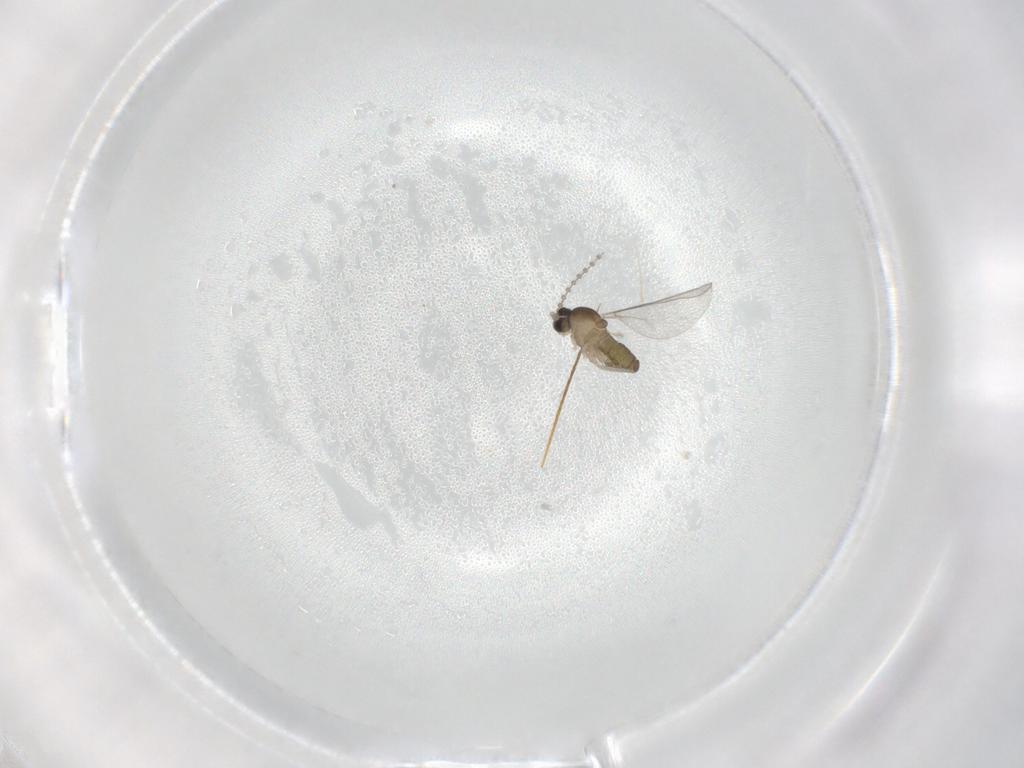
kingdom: Animalia
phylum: Arthropoda
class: Insecta
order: Diptera
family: Cecidomyiidae
